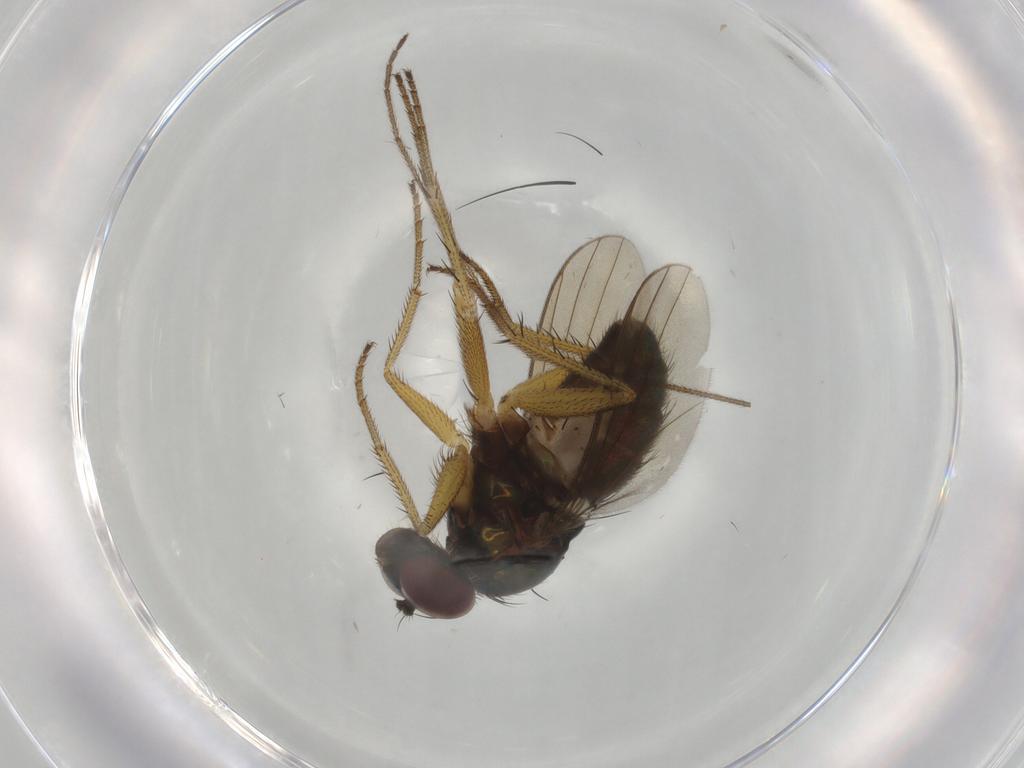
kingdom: Animalia
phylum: Arthropoda
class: Insecta
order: Diptera
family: Dolichopodidae
